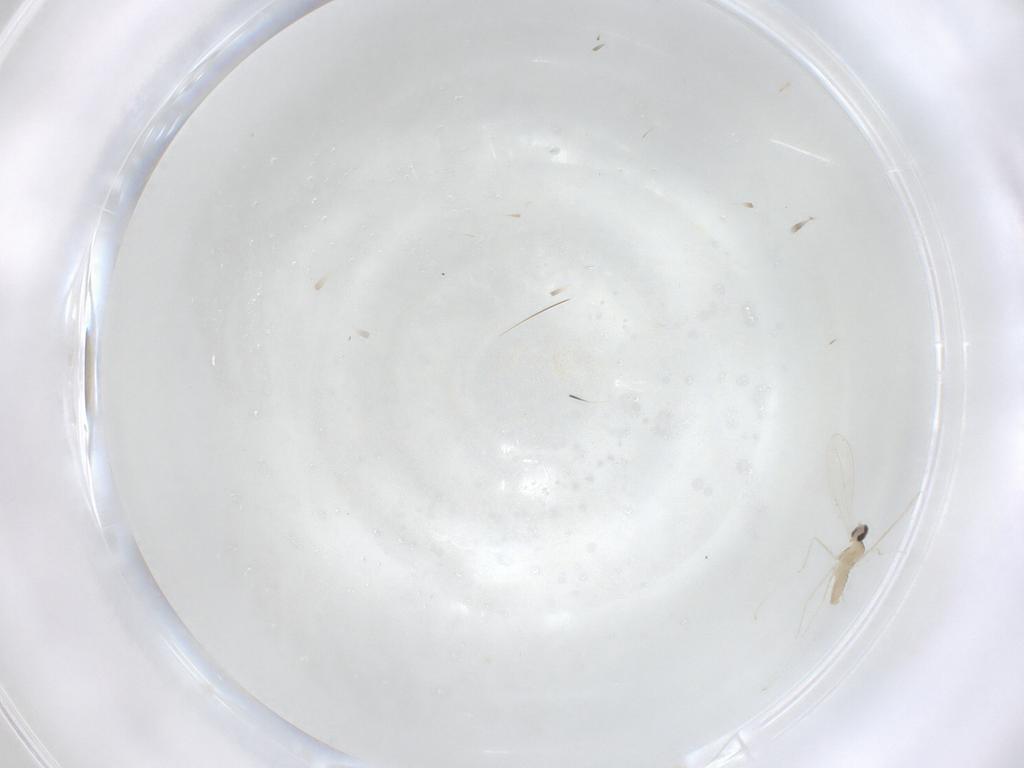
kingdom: Animalia
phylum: Arthropoda
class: Insecta
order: Diptera
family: Cecidomyiidae
